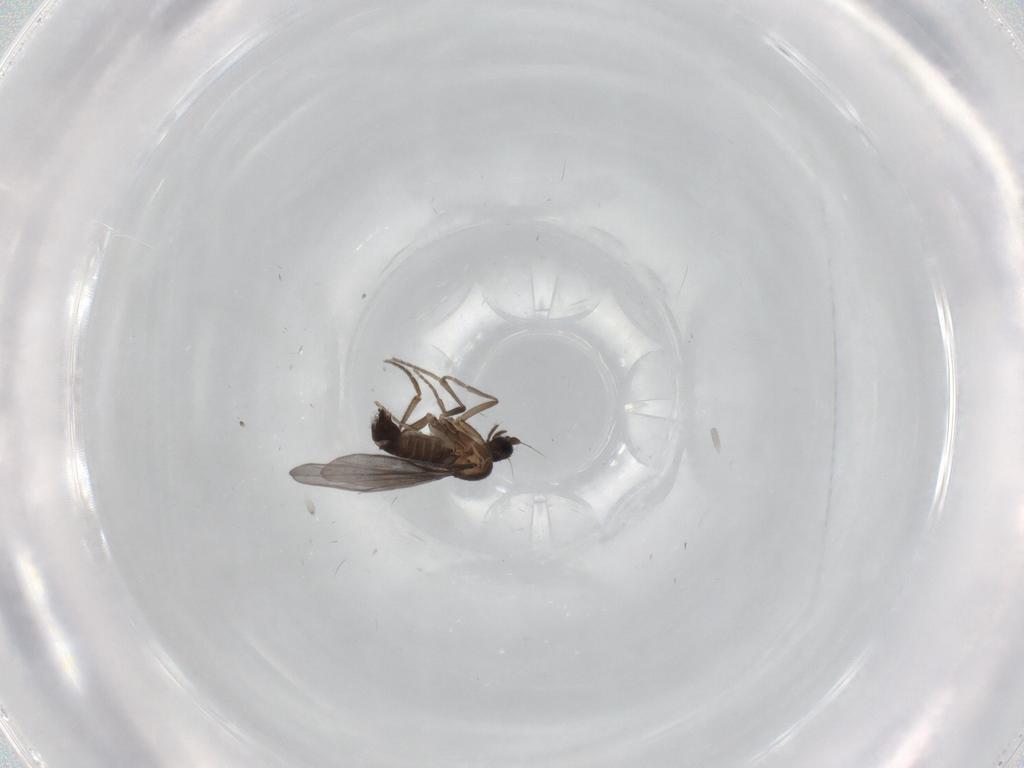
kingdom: Animalia
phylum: Arthropoda
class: Insecta
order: Diptera
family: Phoridae
